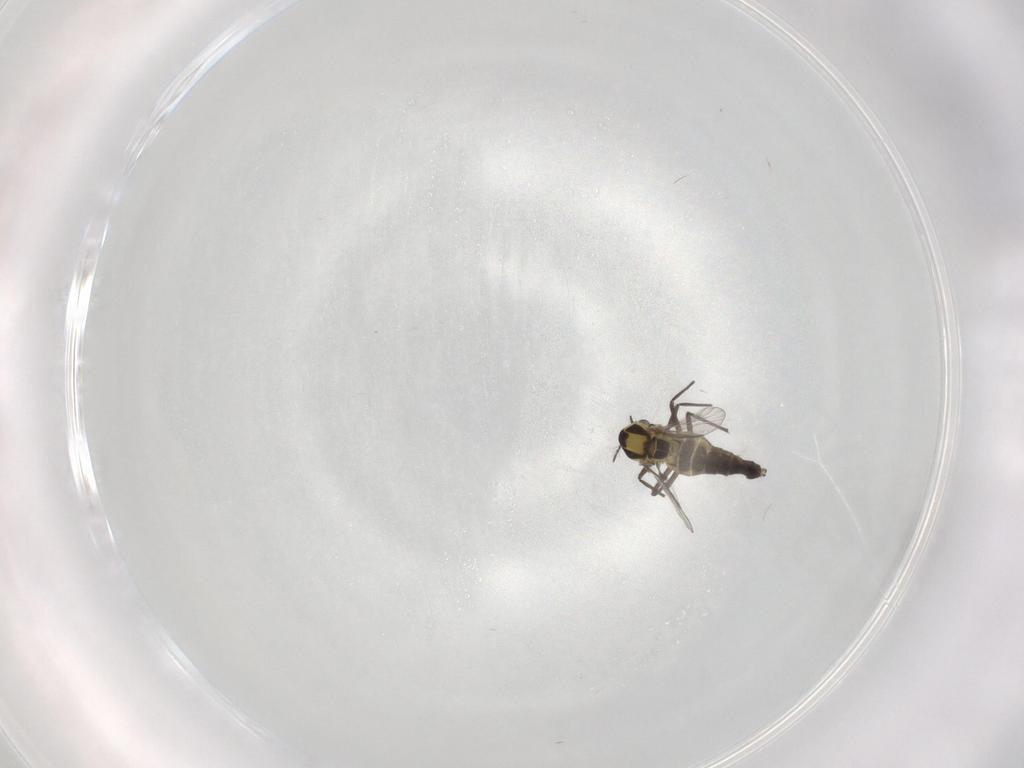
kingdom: Animalia
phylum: Arthropoda
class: Insecta
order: Diptera
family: Chironomidae
